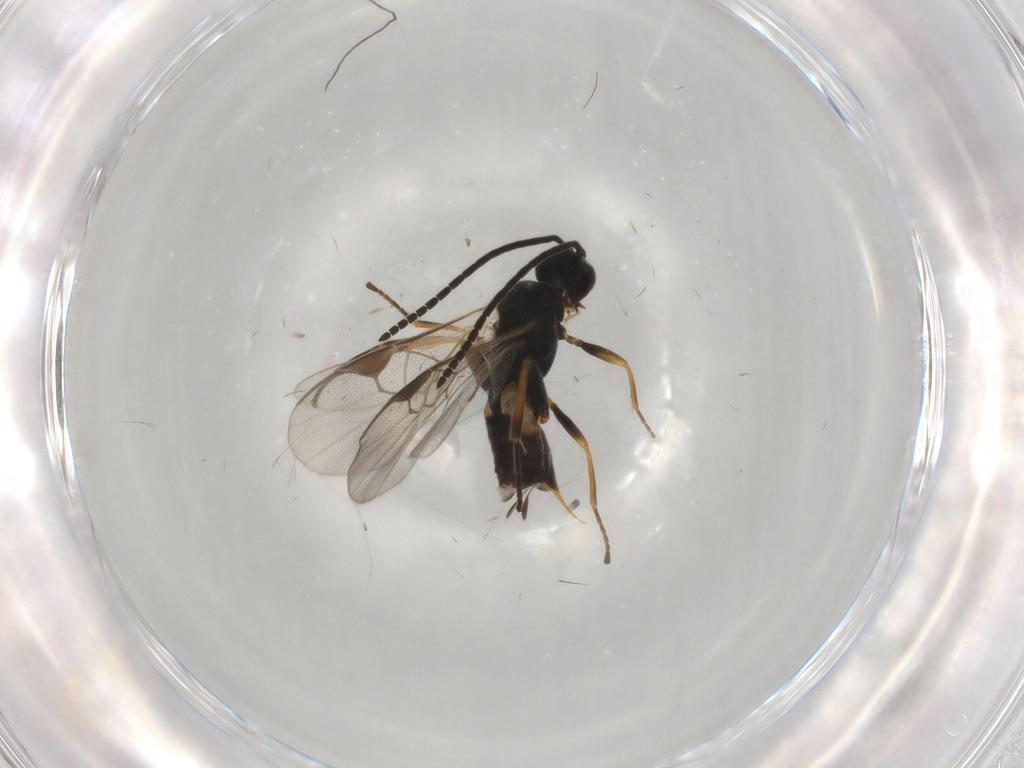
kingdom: Animalia
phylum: Arthropoda
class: Insecta
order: Hymenoptera
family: Braconidae
